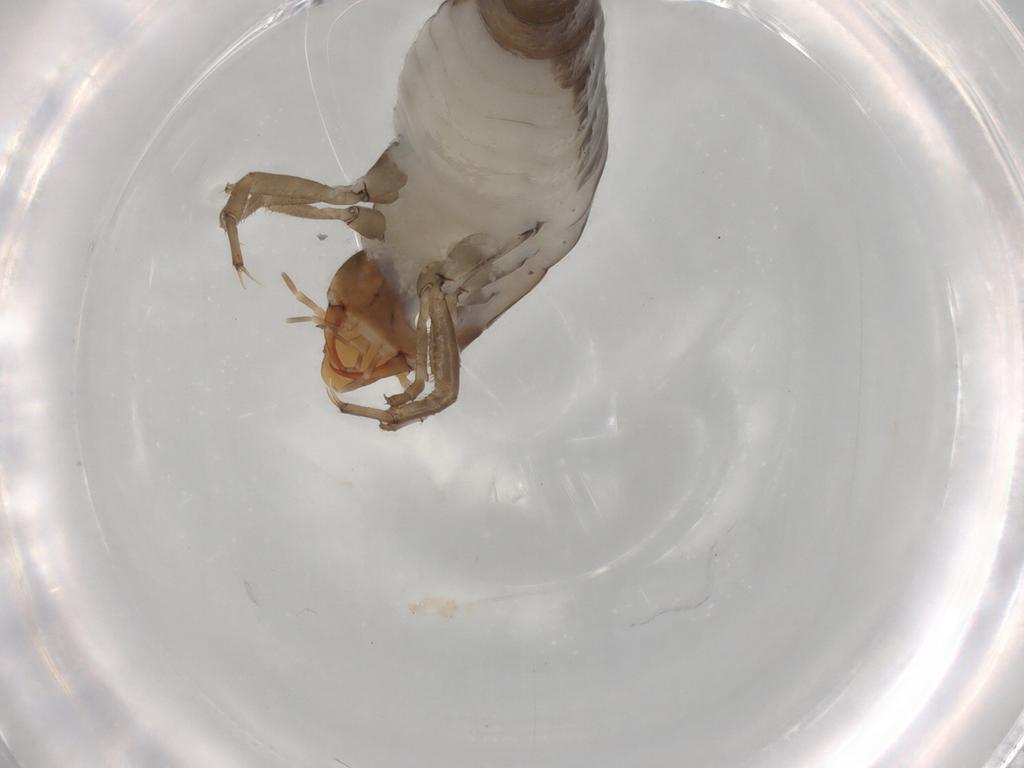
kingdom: Animalia
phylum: Arthropoda
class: Insecta
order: Coleoptera
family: Dytiscidae
